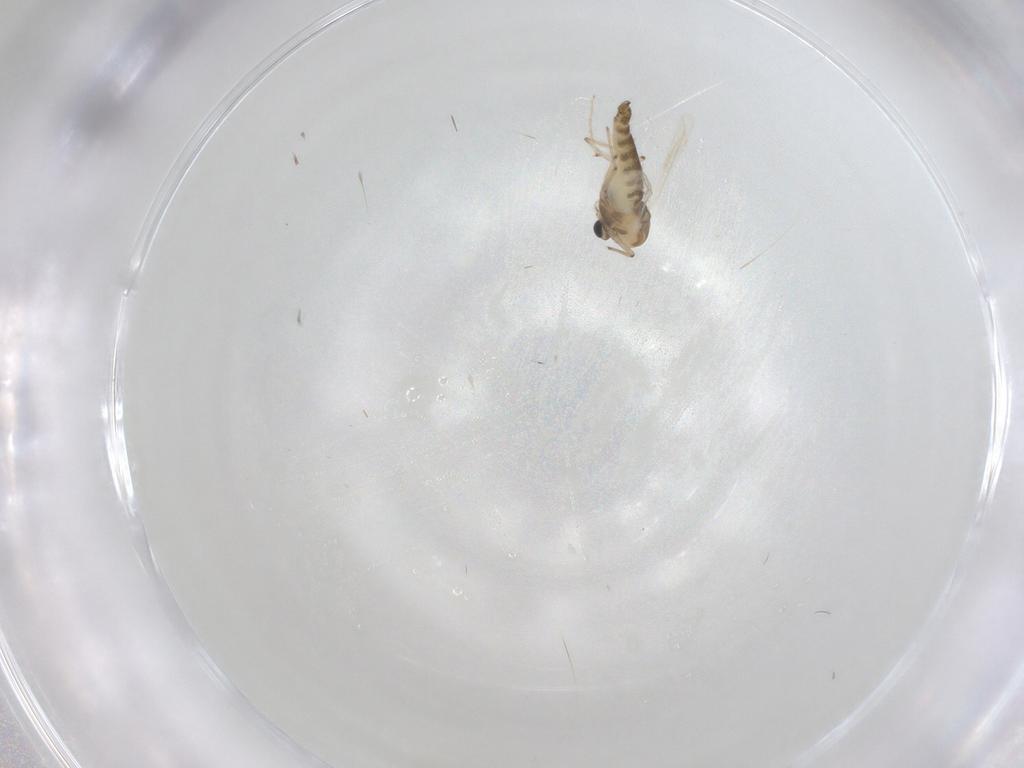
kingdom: Animalia
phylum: Arthropoda
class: Insecta
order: Diptera
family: Chironomidae
